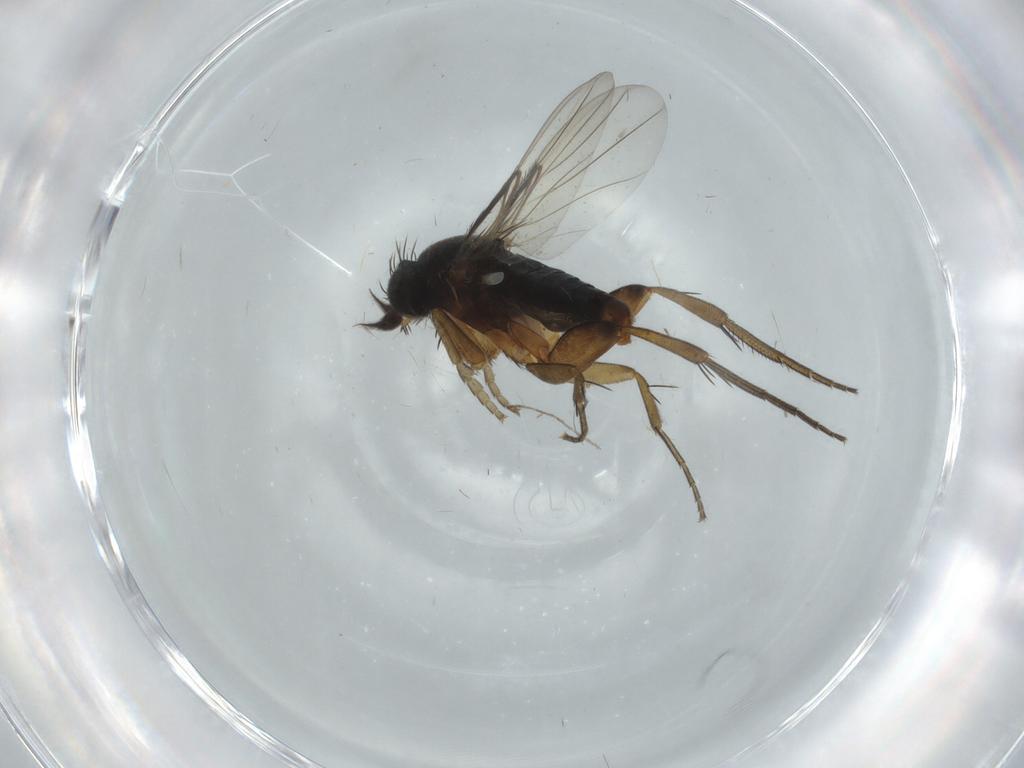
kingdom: Animalia
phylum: Arthropoda
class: Insecta
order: Diptera
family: Phoridae
